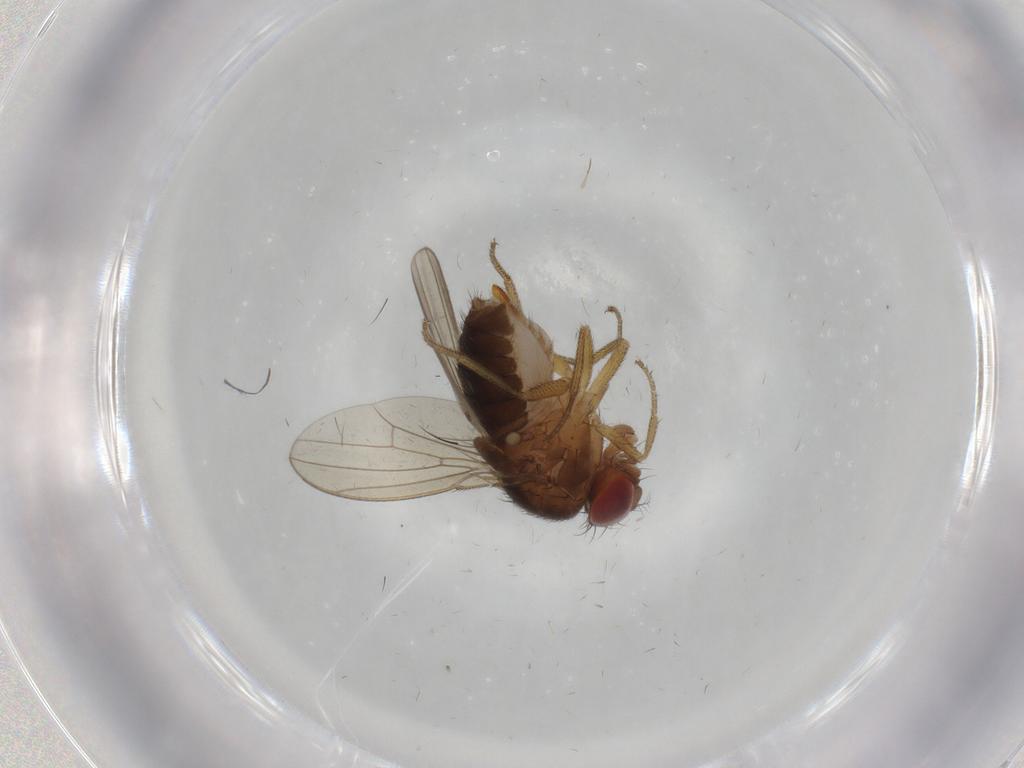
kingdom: Animalia
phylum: Arthropoda
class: Insecta
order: Diptera
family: Drosophilidae
